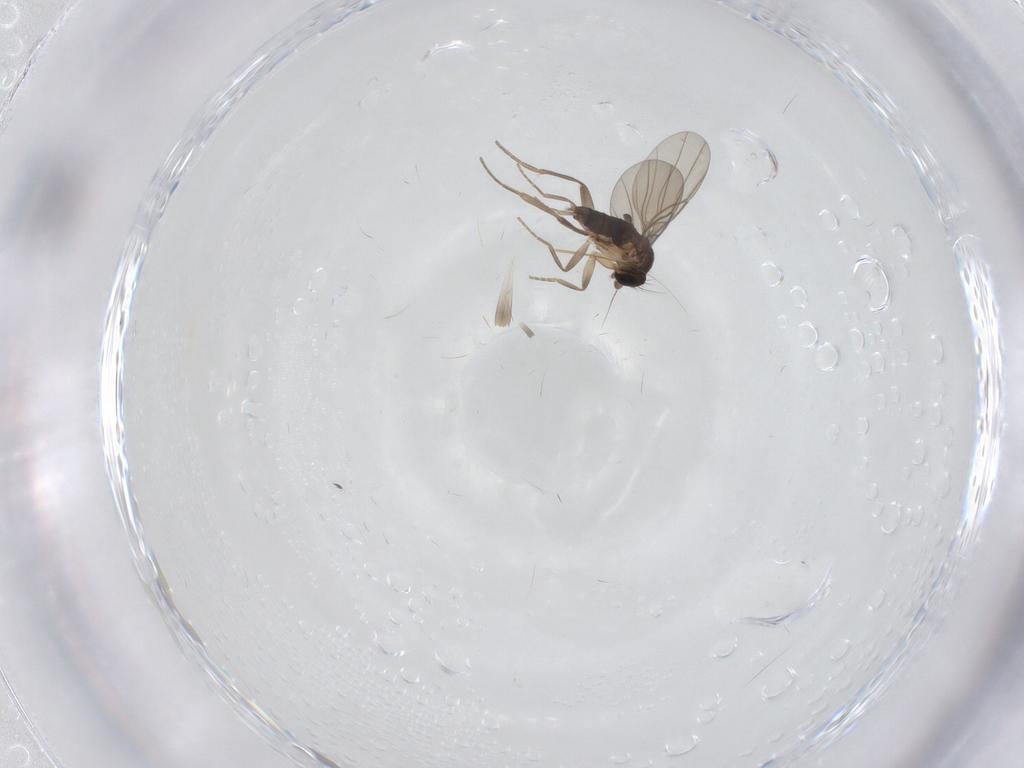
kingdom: Animalia
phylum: Arthropoda
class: Insecta
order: Diptera
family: Phoridae
